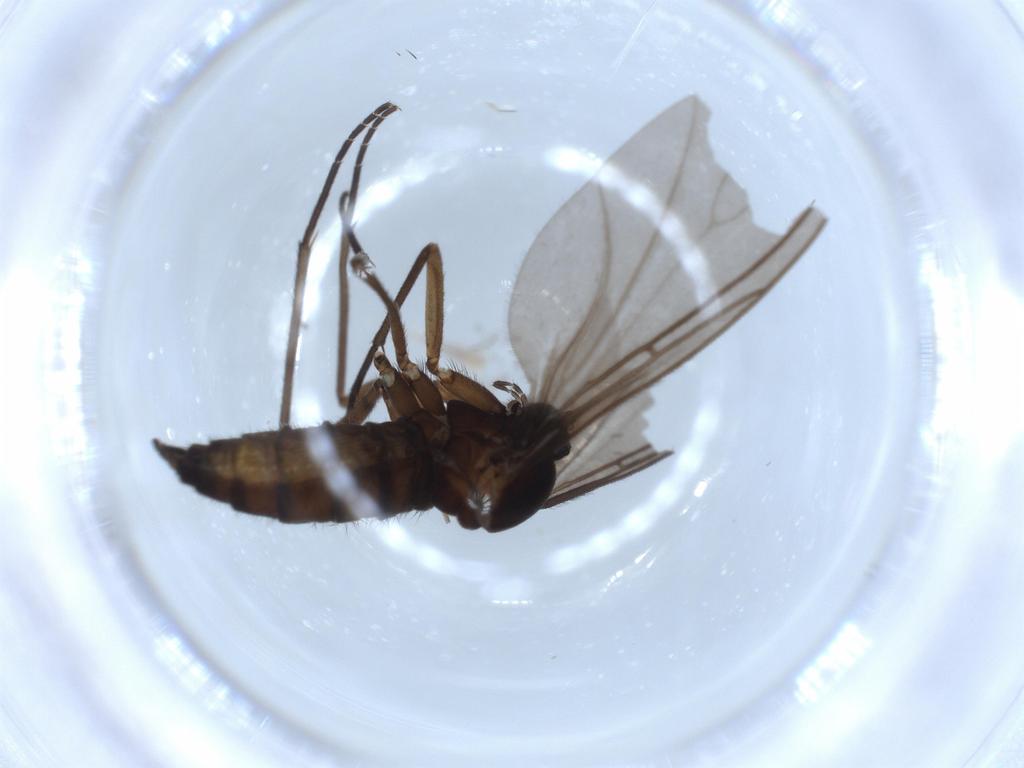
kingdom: Animalia
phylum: Arthropoda
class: Insecta
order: Diptera
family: Sciaridae
